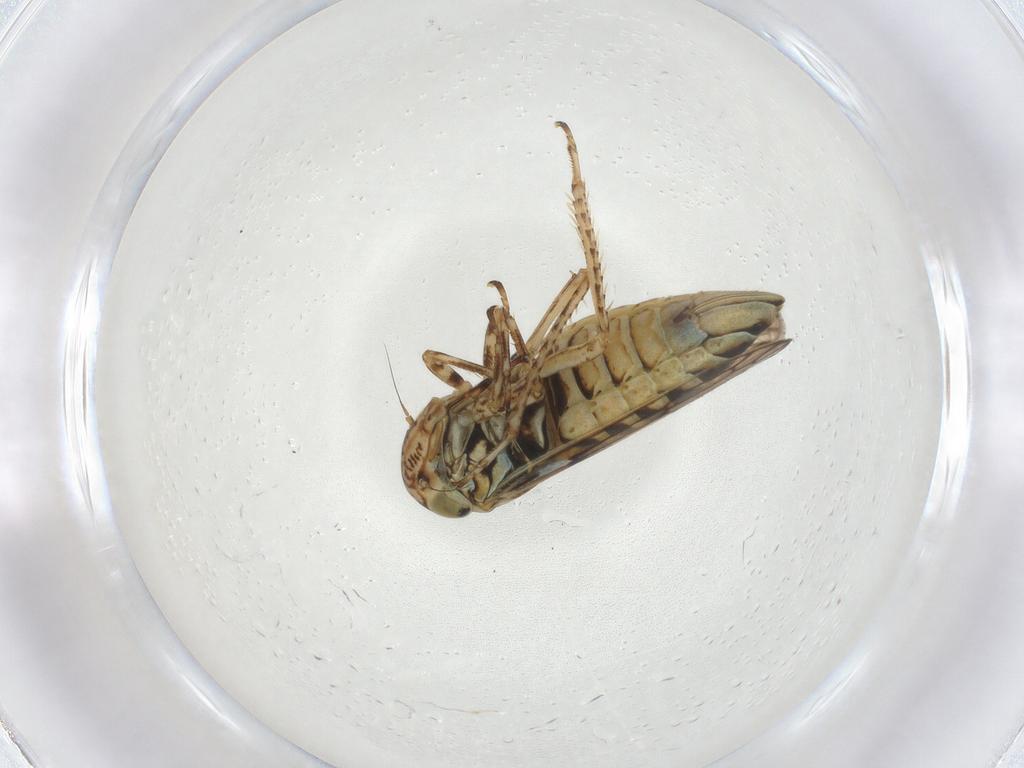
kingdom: Animalia
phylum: Arthropoda
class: Insecta
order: Hemiptera
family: Cicadellidae
